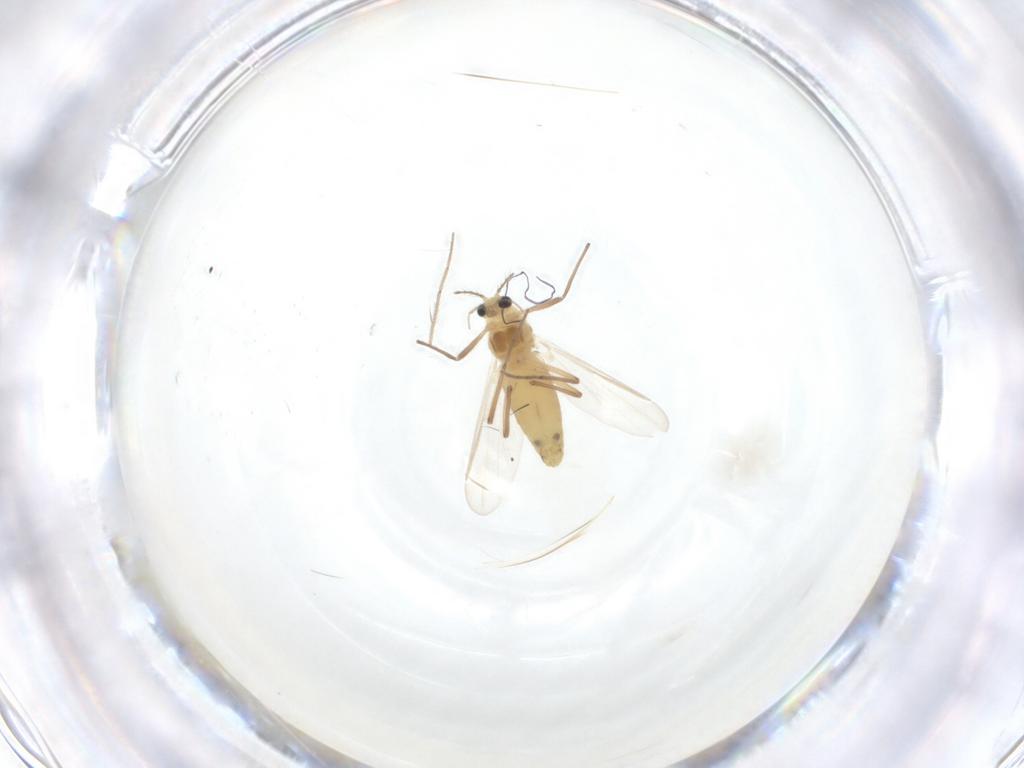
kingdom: Animalia
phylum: Arthropoda
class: Insecta
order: Diptera
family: Chironomidae
